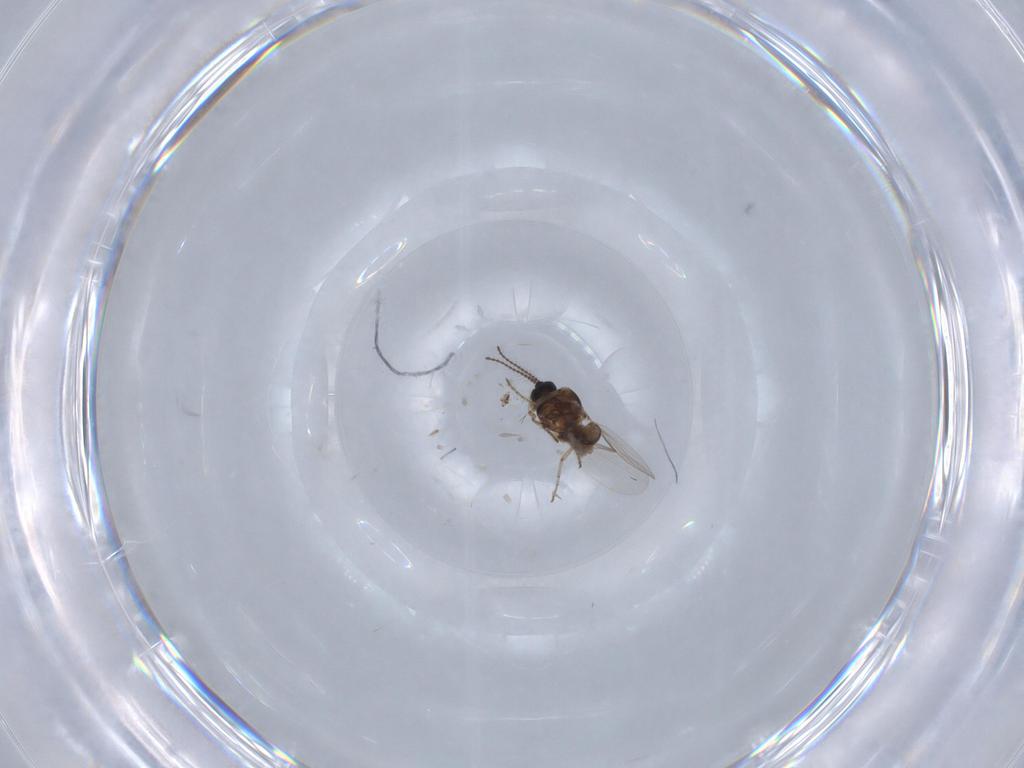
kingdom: Animalia
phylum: Arthropoda
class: Insecta
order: Diptera
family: Ceratopogonidae
